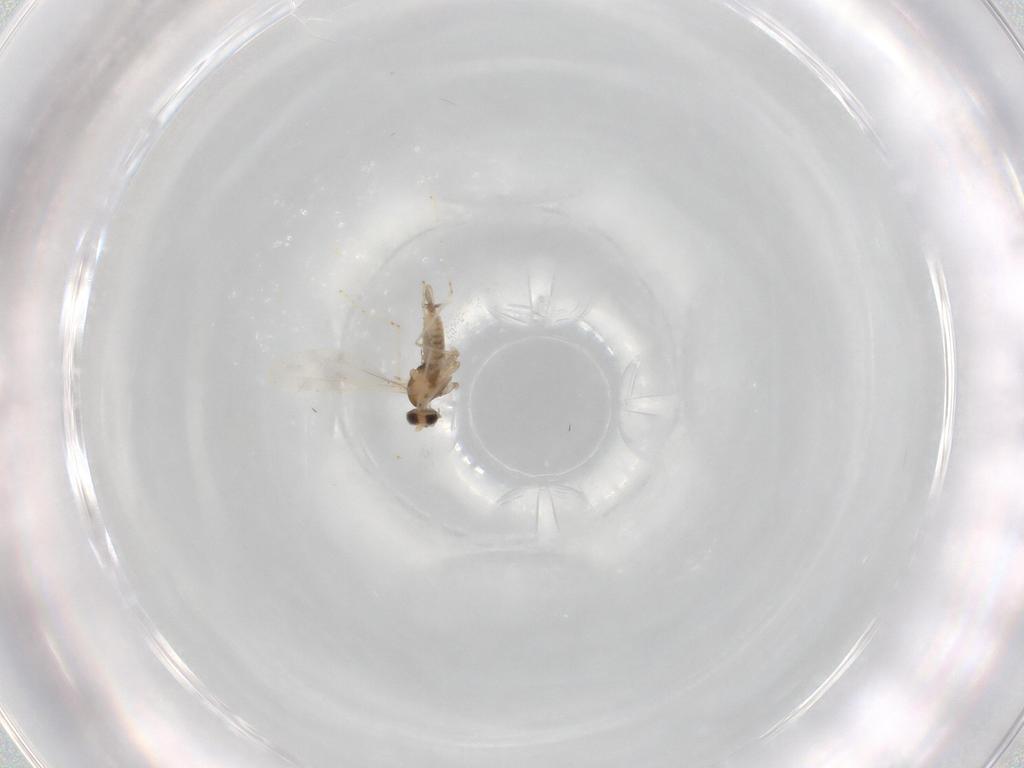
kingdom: Animalia
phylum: Arthropoda
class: Insecta
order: Diptera
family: Cecidomyiidae
